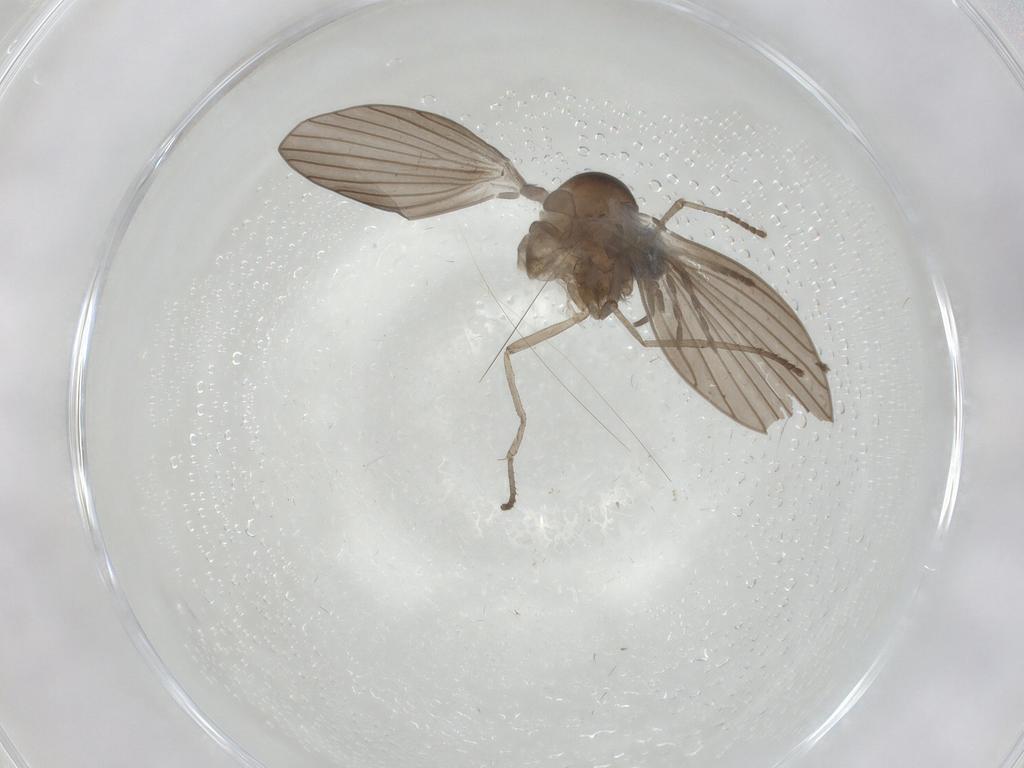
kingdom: Animalia
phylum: Arthropoda
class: Insecta
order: Diptera
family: Psychodidae
